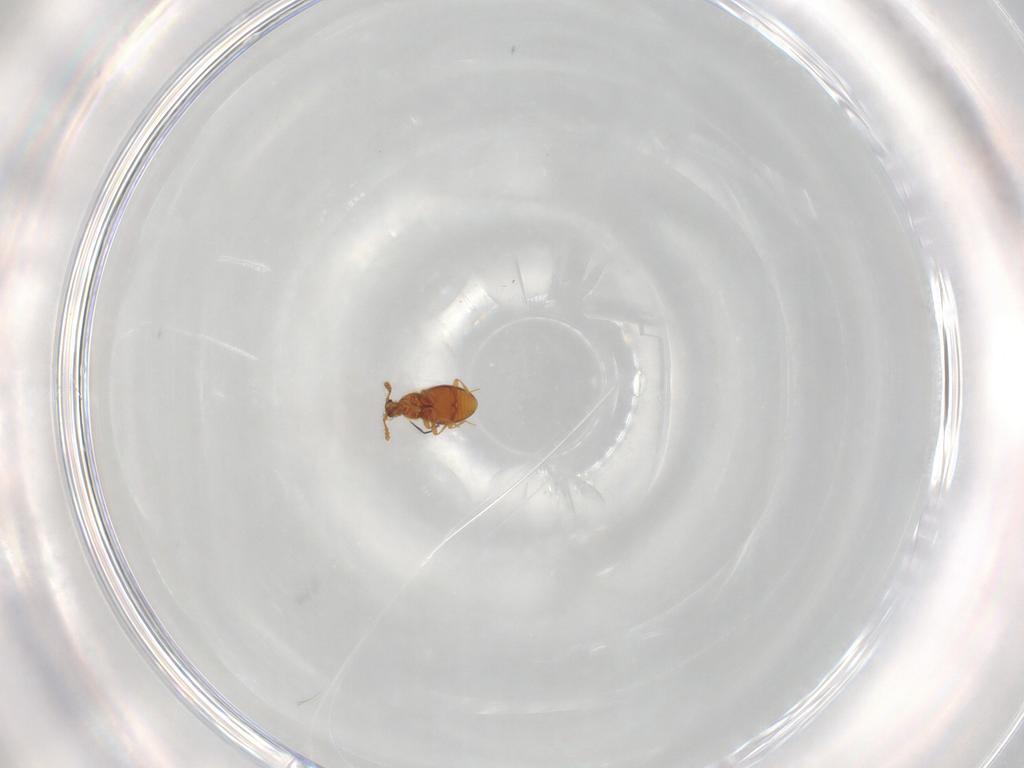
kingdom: Animalia
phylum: Arthropoda
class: Insecta
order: Coleoptera
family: Staphylinidae
